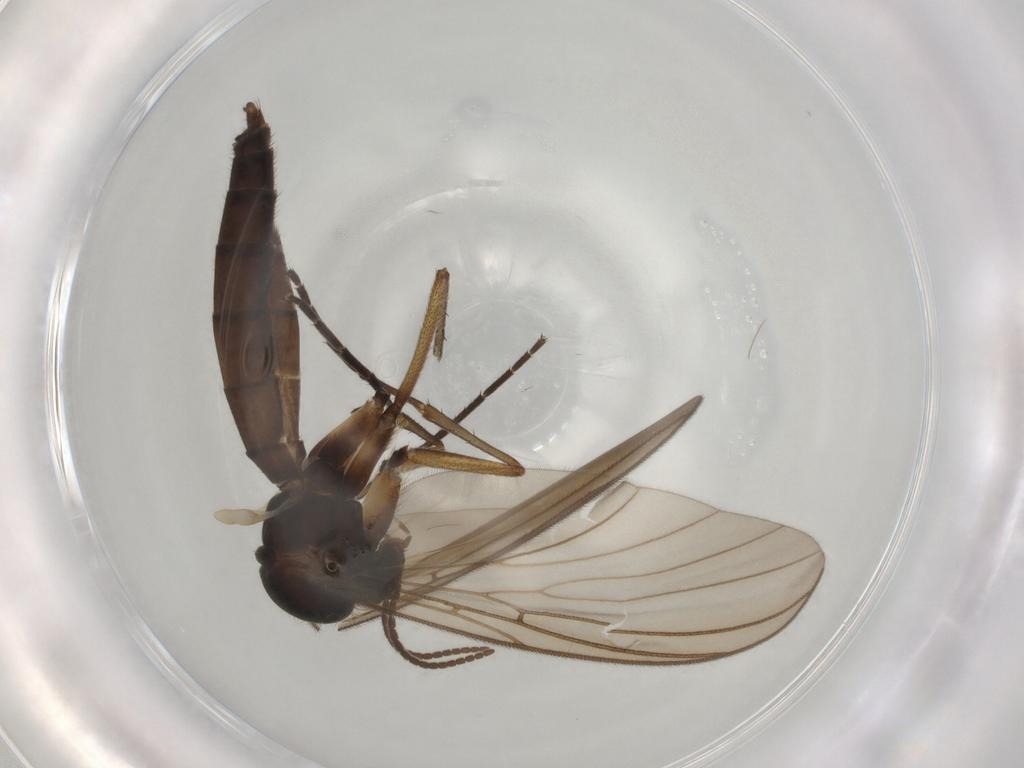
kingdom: Animalia
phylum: Arthropoda
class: Insecta
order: Diptera
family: Mycetophilidae
